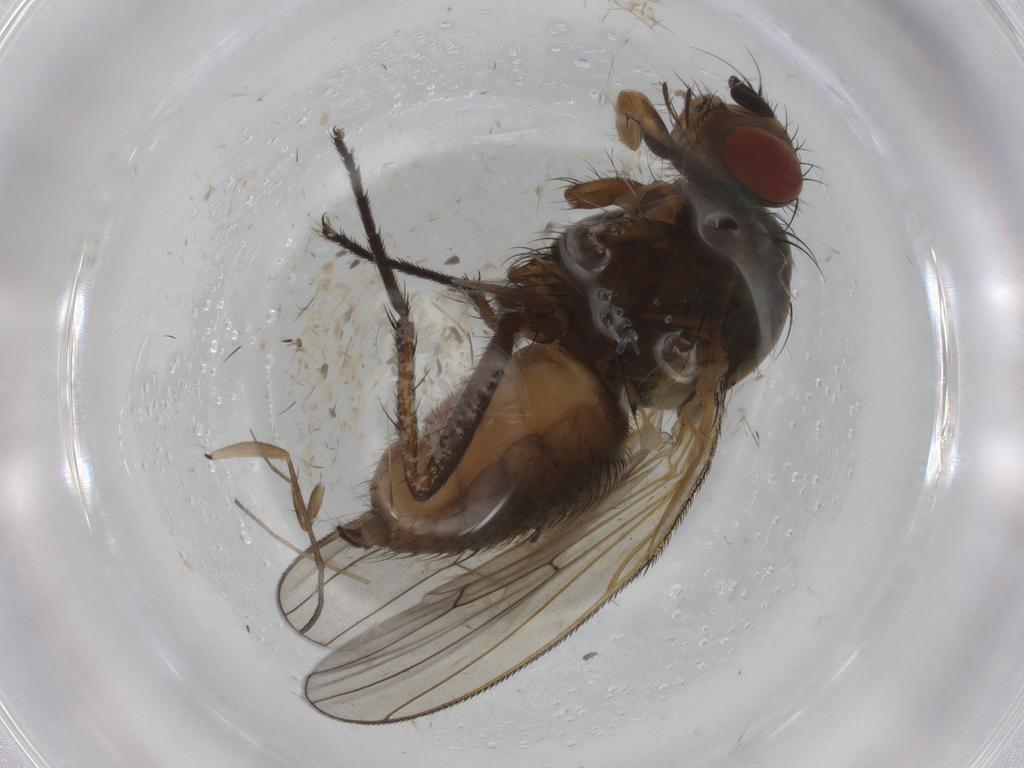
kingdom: Animalia
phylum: Arthropoda
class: Insecta
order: Diptera
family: Anthomyiidae
